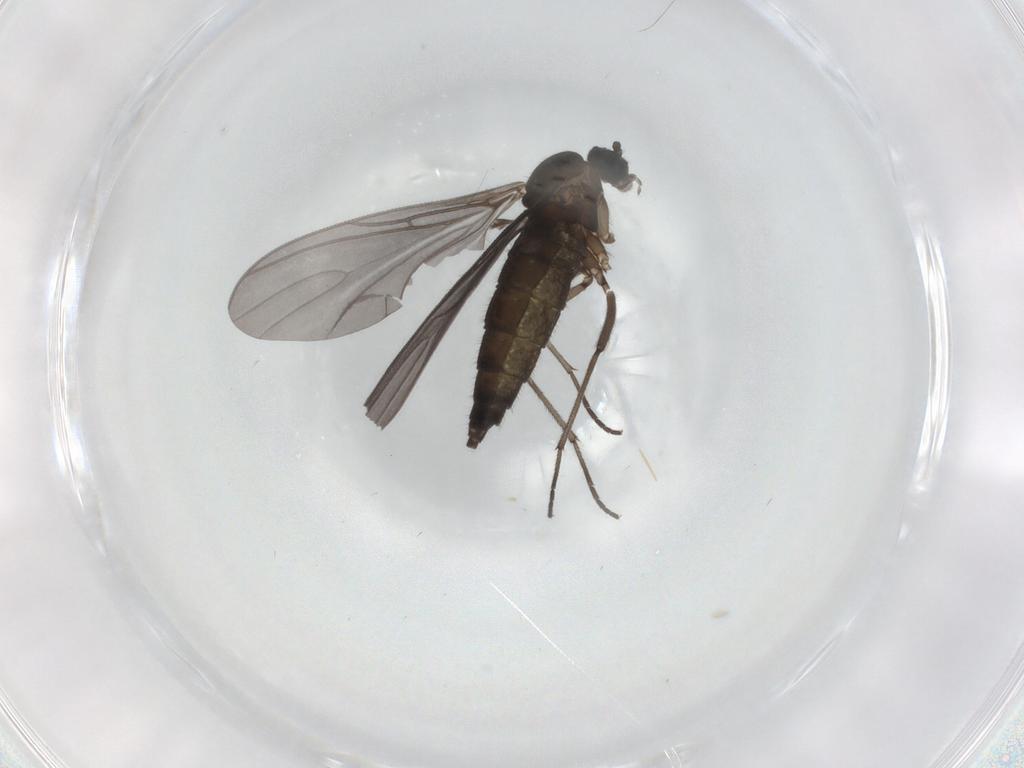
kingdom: Animalia
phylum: Arthropoda
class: Insecta
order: Diptera
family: Sciaridae
